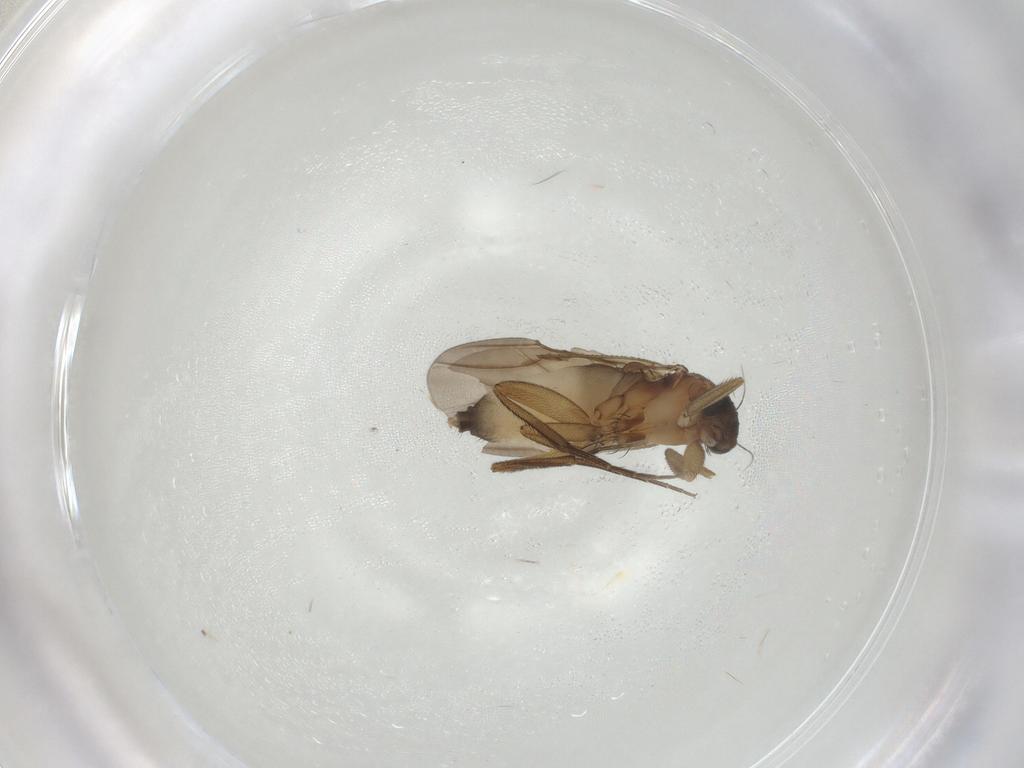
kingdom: Animalia
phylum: Arthropoda
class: Insecta
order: Diptera
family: Phoridae
